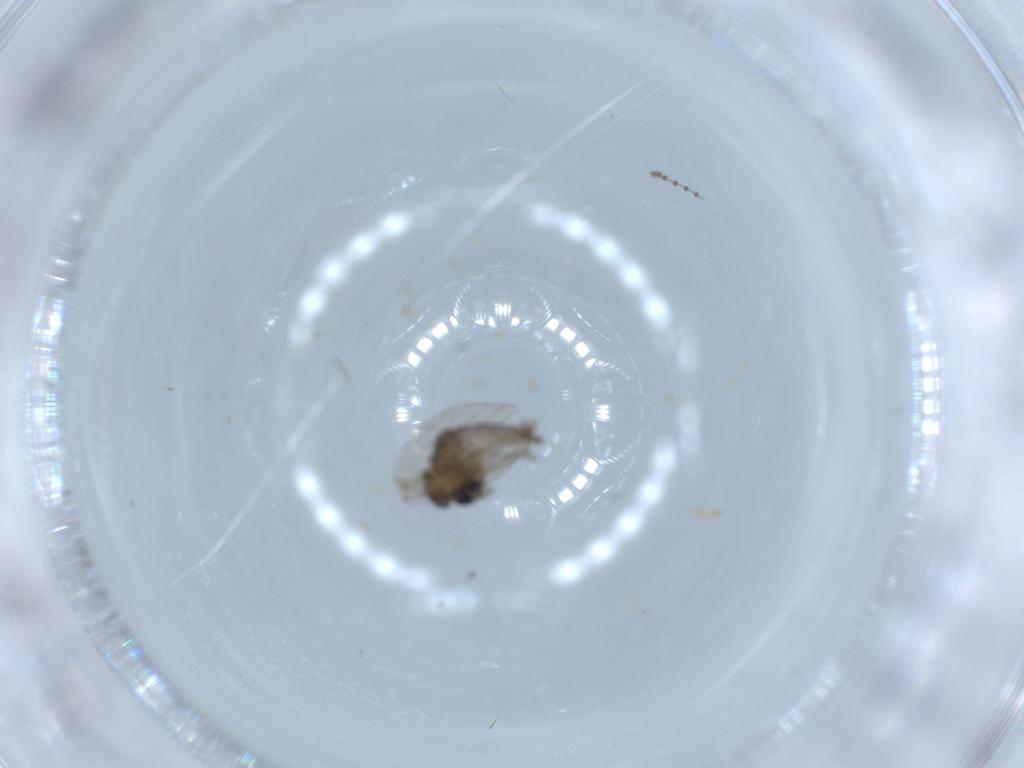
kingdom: Animalia
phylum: Arthropoda
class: Insecta
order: Diptera
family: Psychodidae
